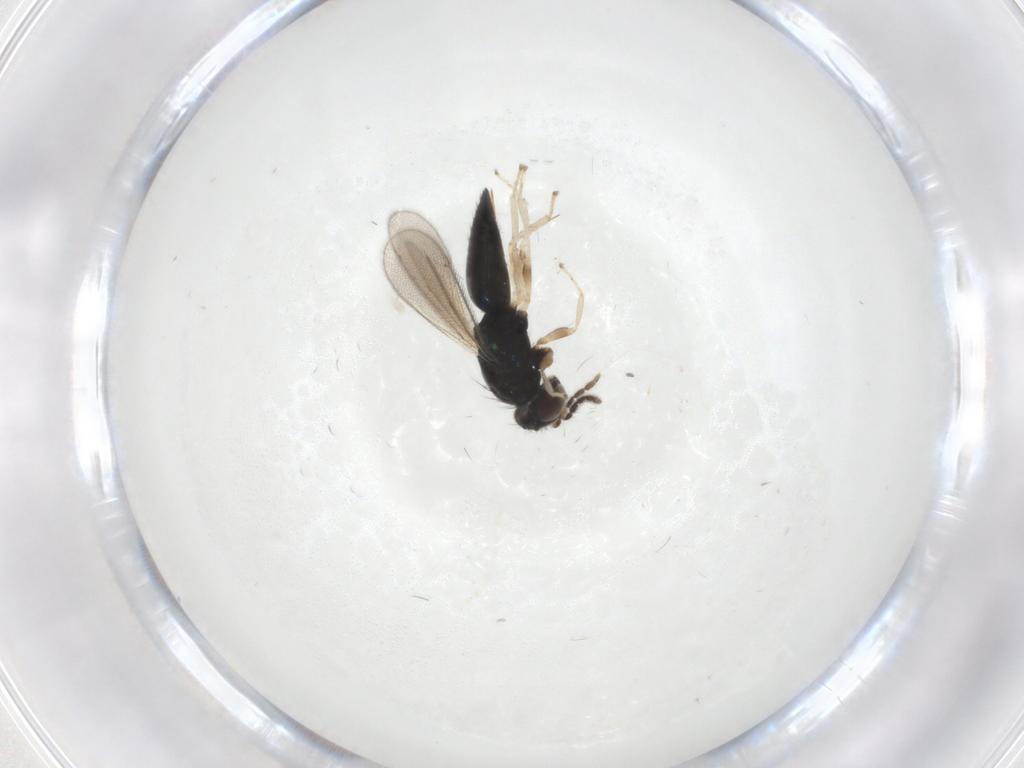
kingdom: Animalia
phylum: Arthropoda
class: Insecta
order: Hymenoptera
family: Eulophidae
